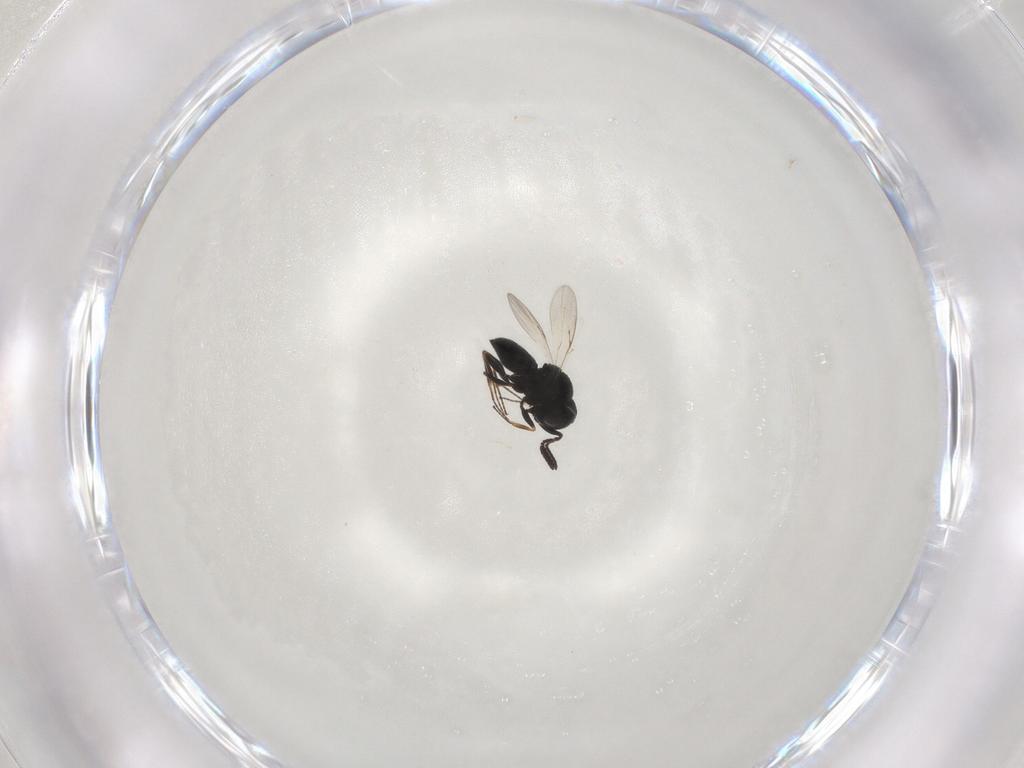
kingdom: Animalia
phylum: Arthropoda
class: Insecta
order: Hymenoptera
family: Scelionidae
